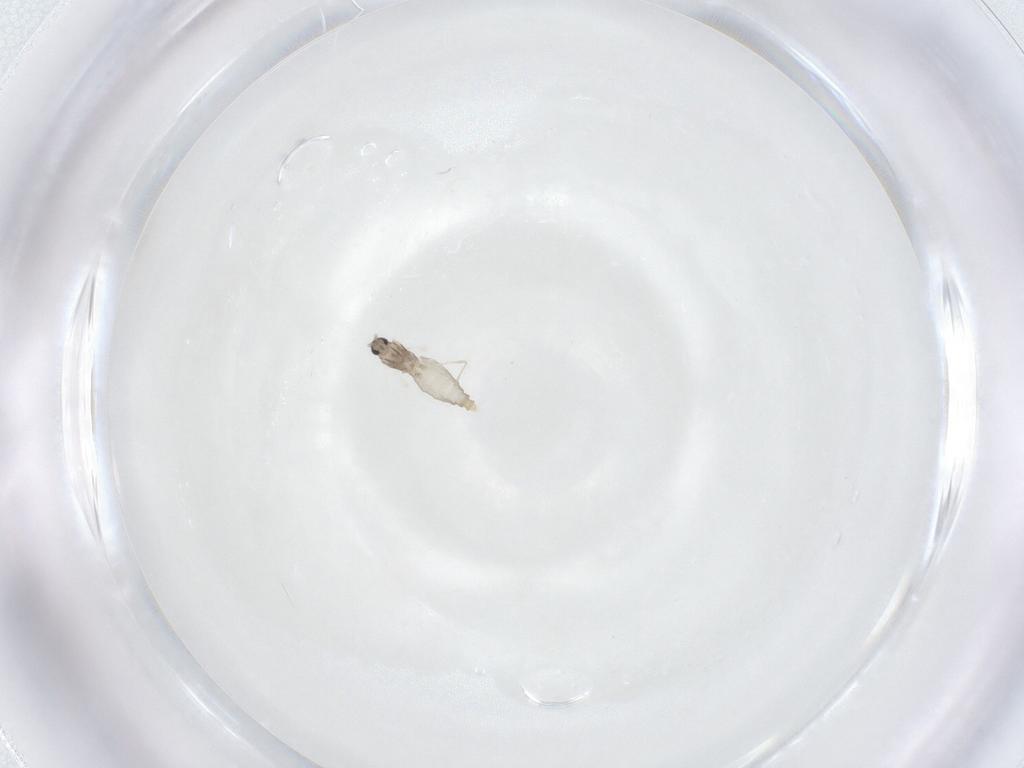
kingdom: Animalia
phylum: Arthropoda
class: Insecta
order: Diptera
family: Cecidomyiidae
